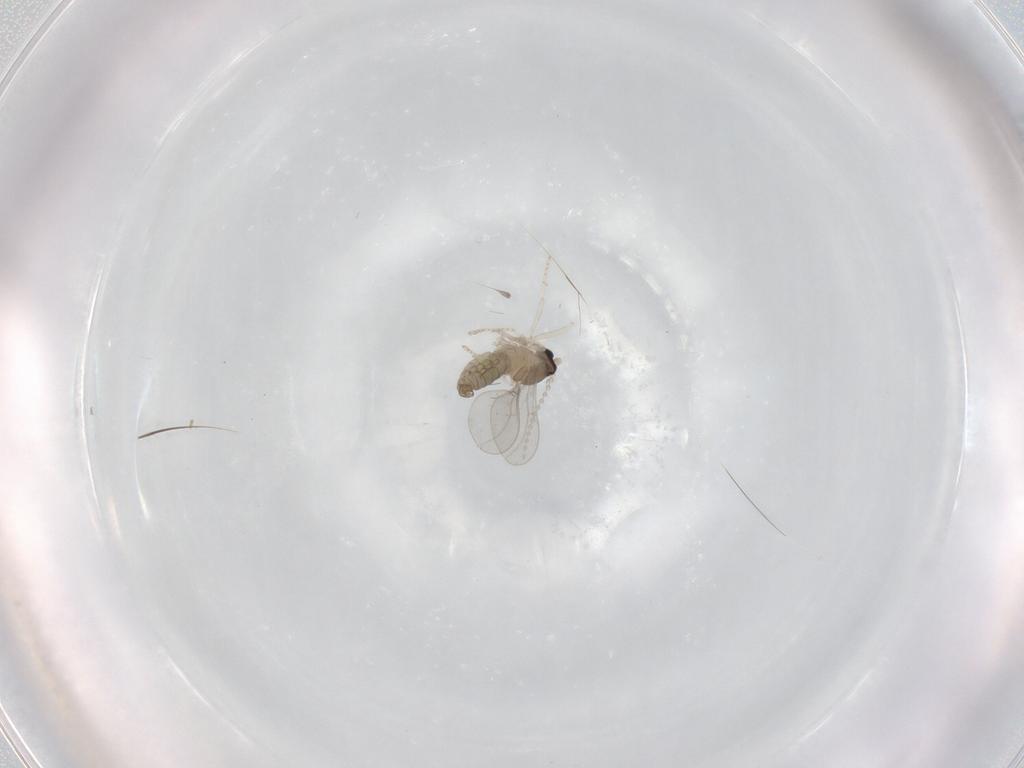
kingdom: Animalia
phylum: Arthropoda
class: Insecta
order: Diptera
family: Cecidomyiidae
